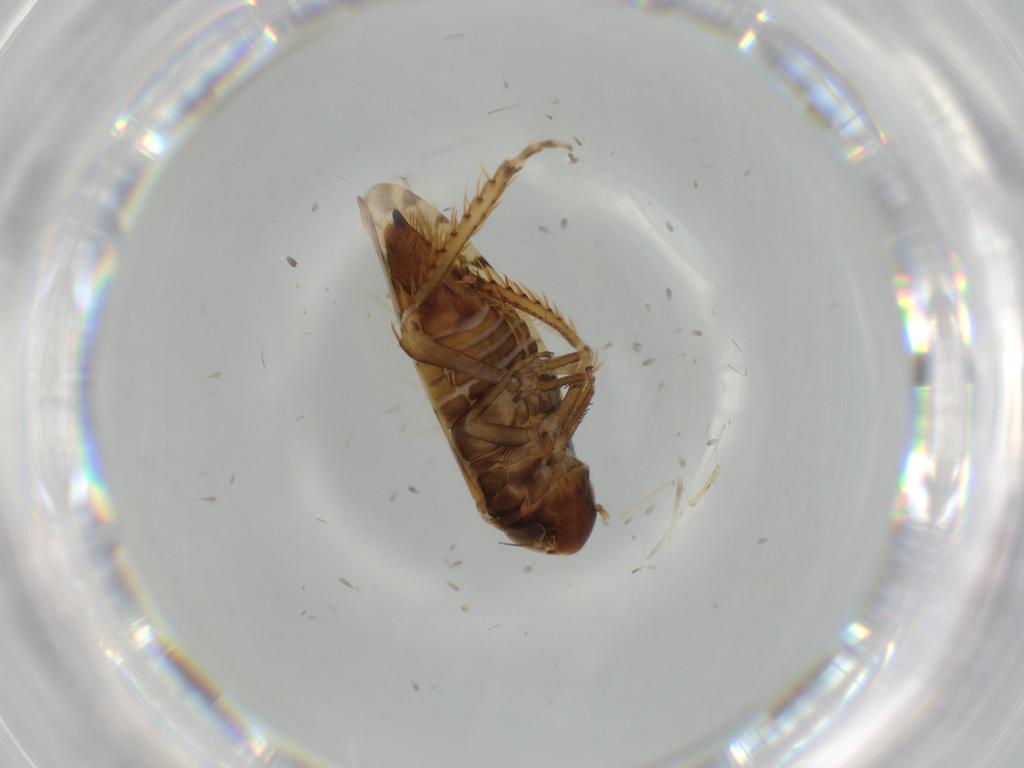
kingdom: Animalia
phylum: Arthropoda
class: Insecta
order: Hemiptera
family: Cicadellidae
